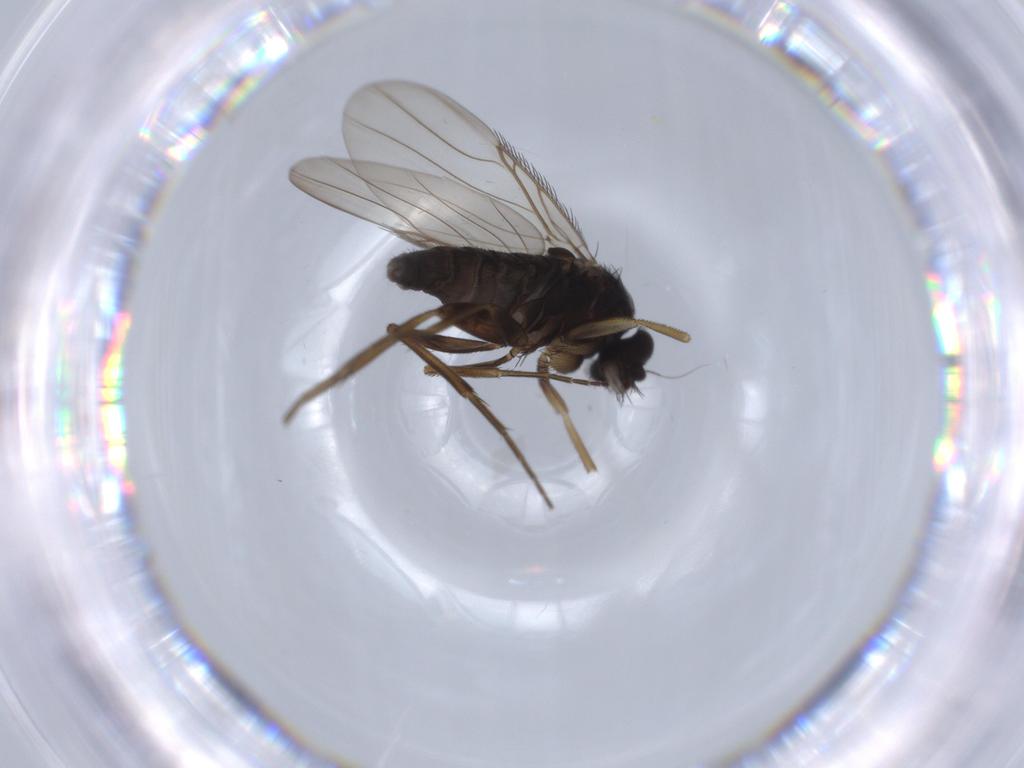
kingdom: Animalia
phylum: Arthropoda
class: Insecta
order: Diptera
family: Phoridae
